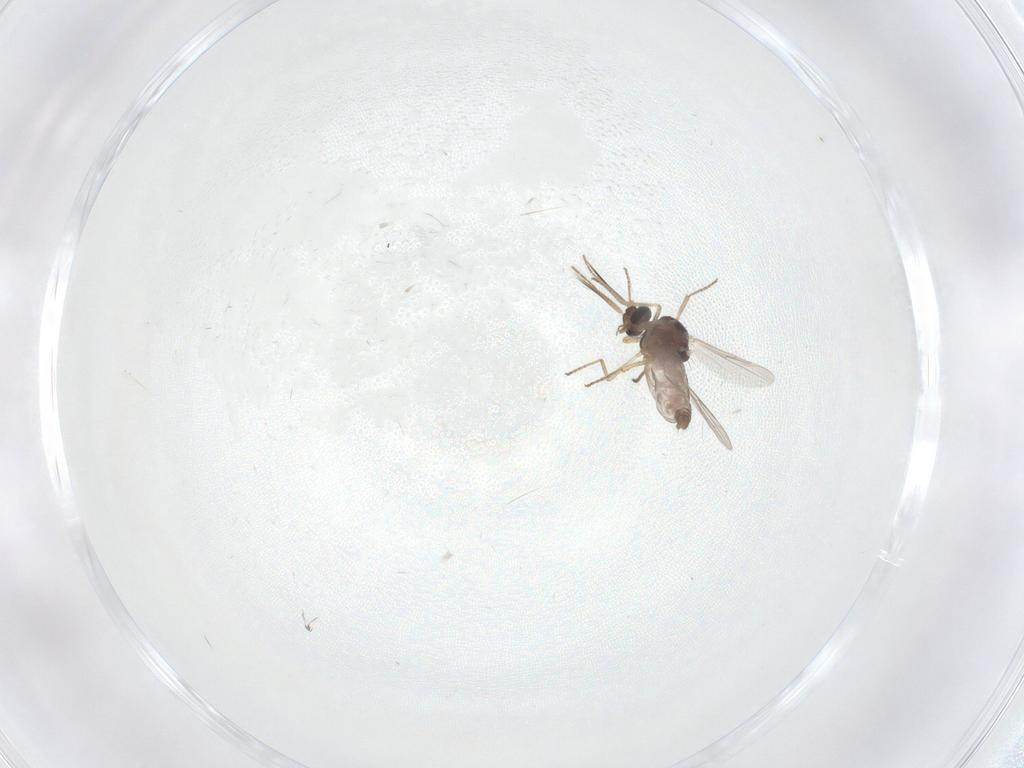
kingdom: Animalia
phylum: Arthropoda
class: Insecta
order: Diptera
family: Scatopsidae
